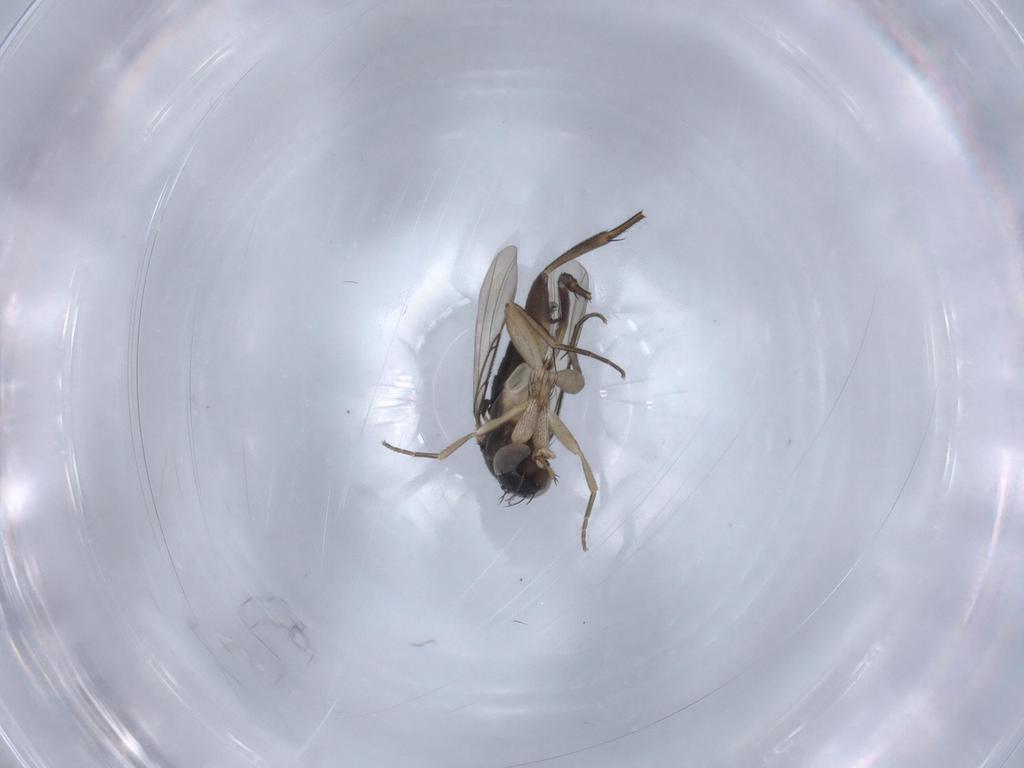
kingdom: Animalia
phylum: Arthropoda
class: Insecta
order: Diptera
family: Phoridae
